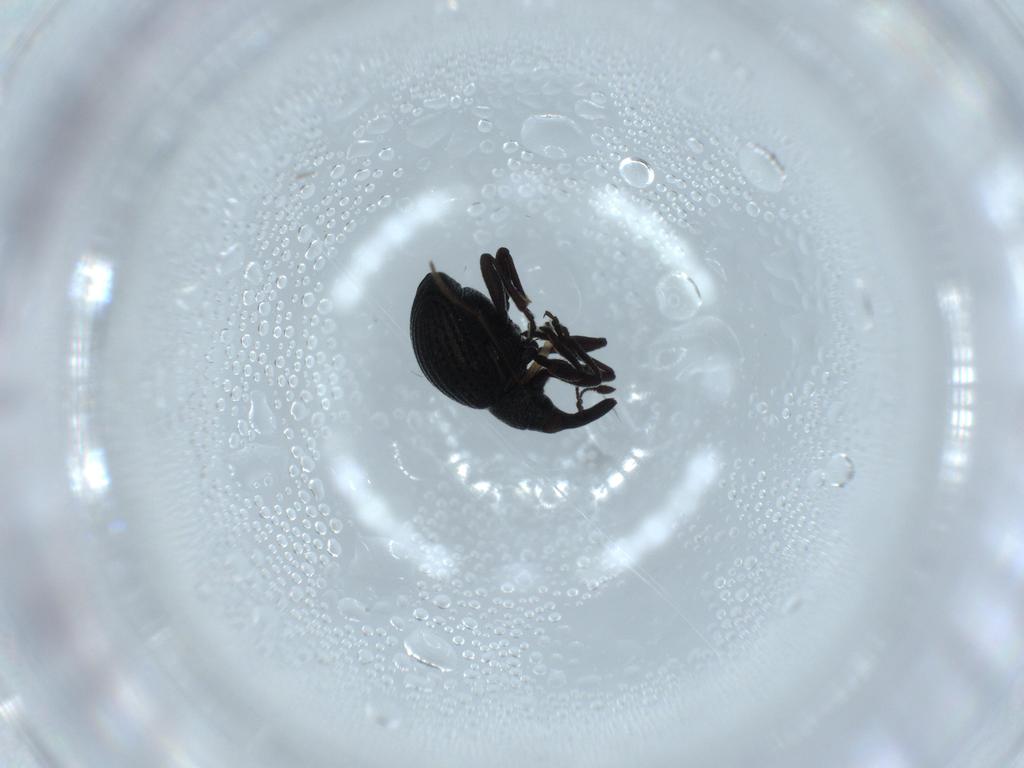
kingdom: Animalia
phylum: Arthropoda
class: Insecta
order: Coleoptera
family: Brentidae
